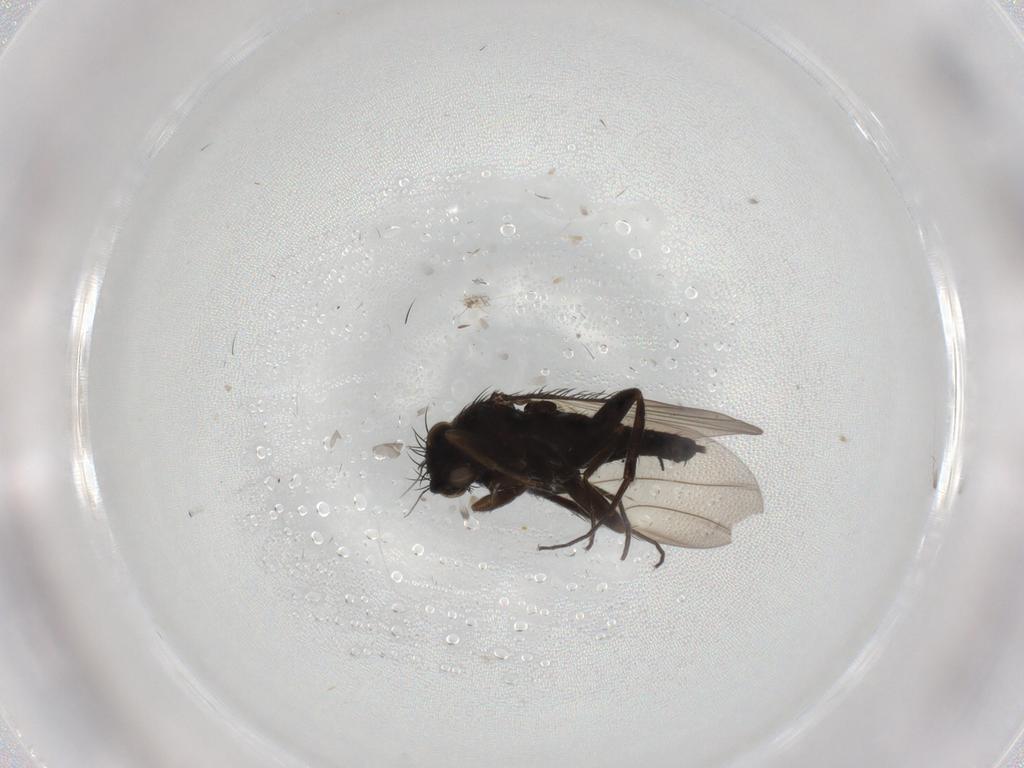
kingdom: Animalia
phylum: Arthropoda
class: Insecta
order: Diptera
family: Phoridae
